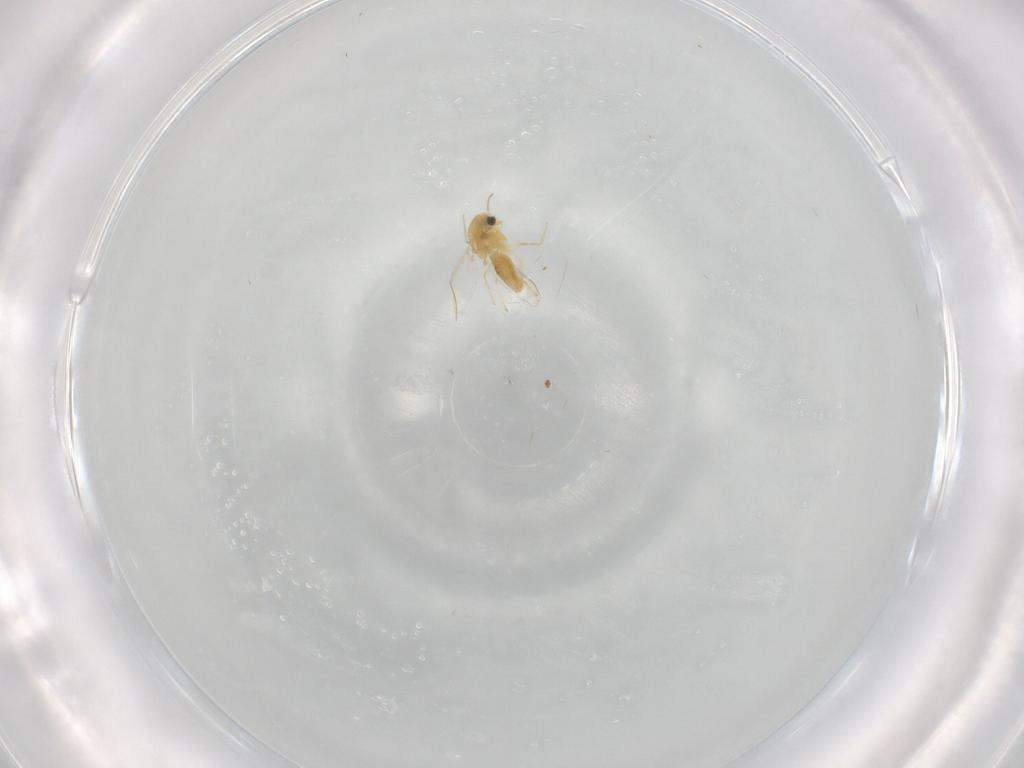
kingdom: Animalia
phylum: Arthropoda
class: Insecta
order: Diptera
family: Chironomidae
